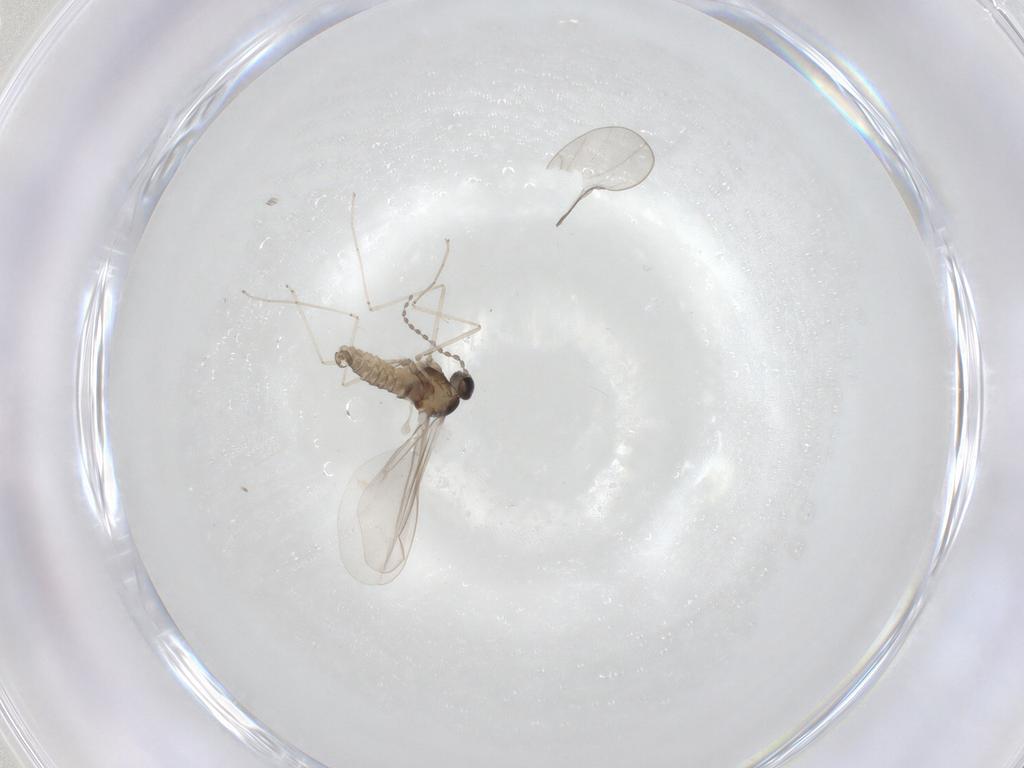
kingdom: Animalia
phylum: Arthropoda
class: Insecta
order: Diptera
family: Cecidomyiidae
